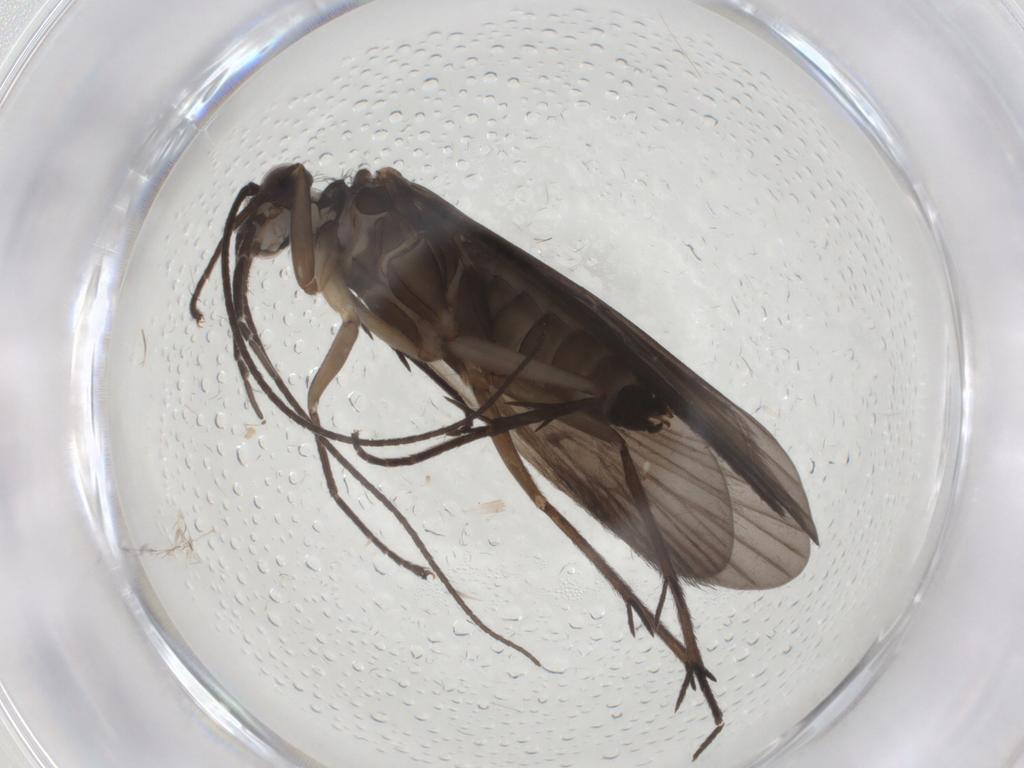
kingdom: Animalia
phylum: Arthropoda
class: Insecta
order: Trichoptera
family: Philopotamidae
